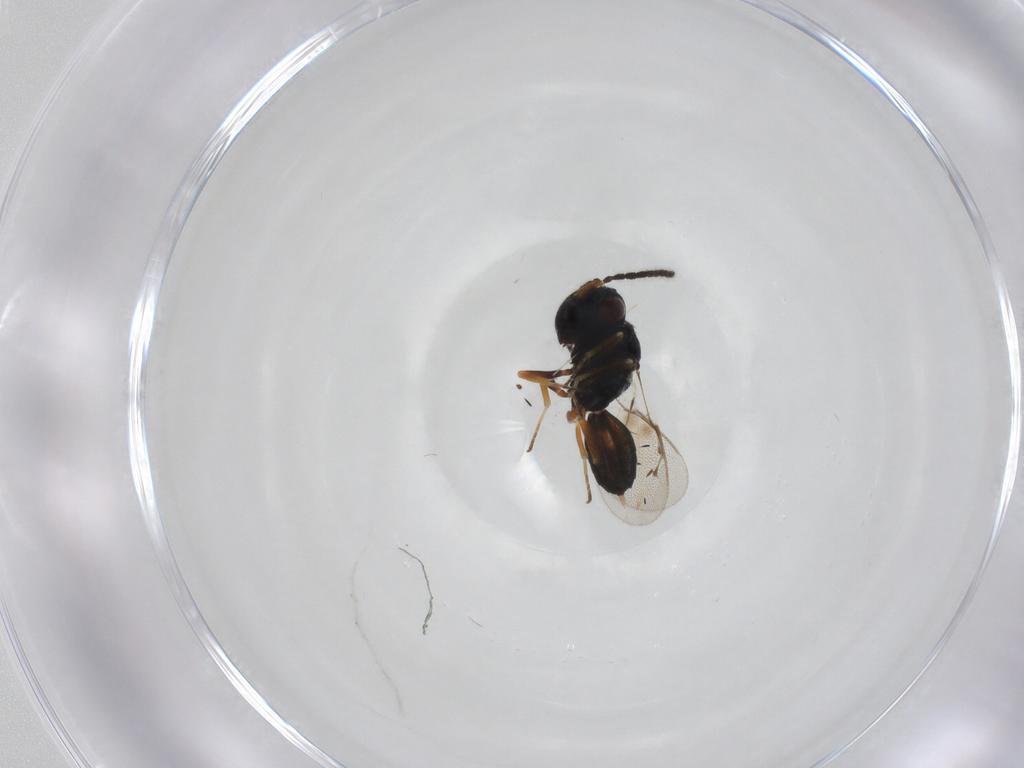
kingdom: Animalia
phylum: Arthropoda
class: Insecta
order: Hymenoptera
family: Pteromalidae
